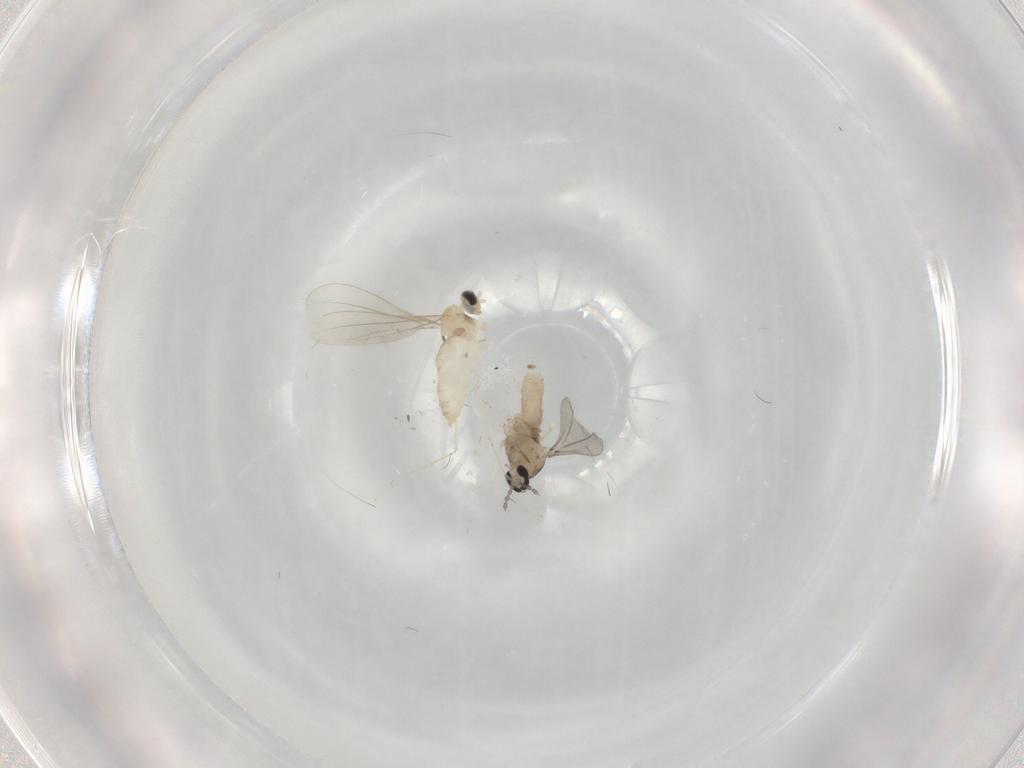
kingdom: Animalia
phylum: Arthropoda
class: Insecta
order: Diptera
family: Cecidomyiidae
